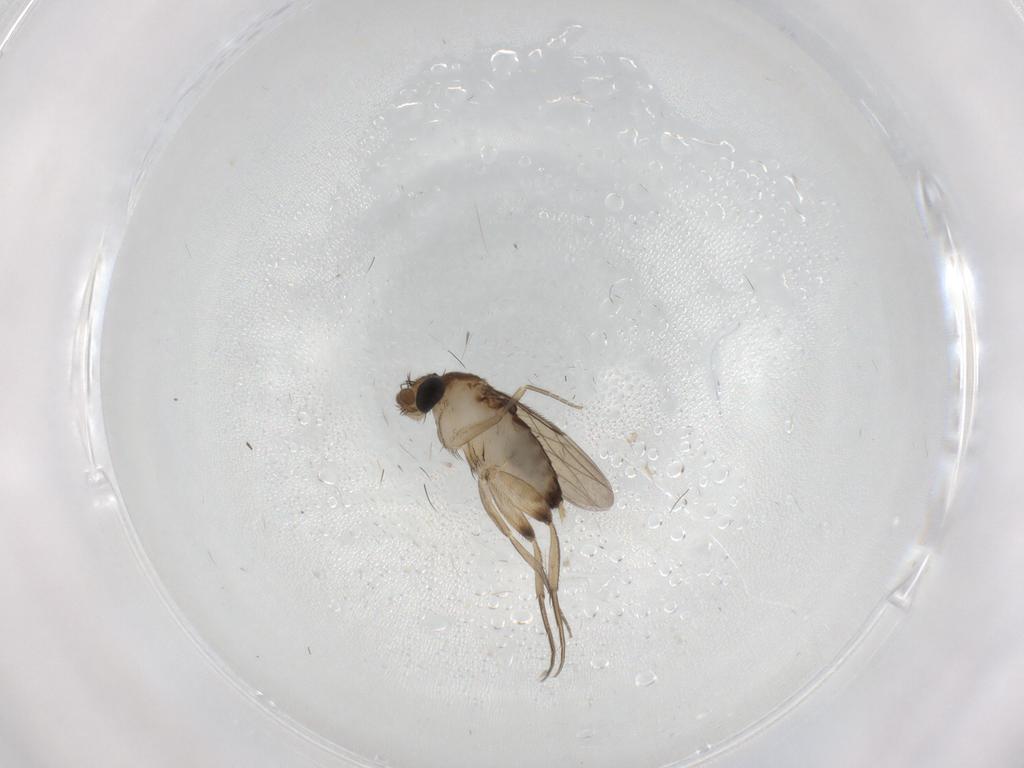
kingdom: Animalia
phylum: Arthropoda
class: Insecta
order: Diptera
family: Phoridae
